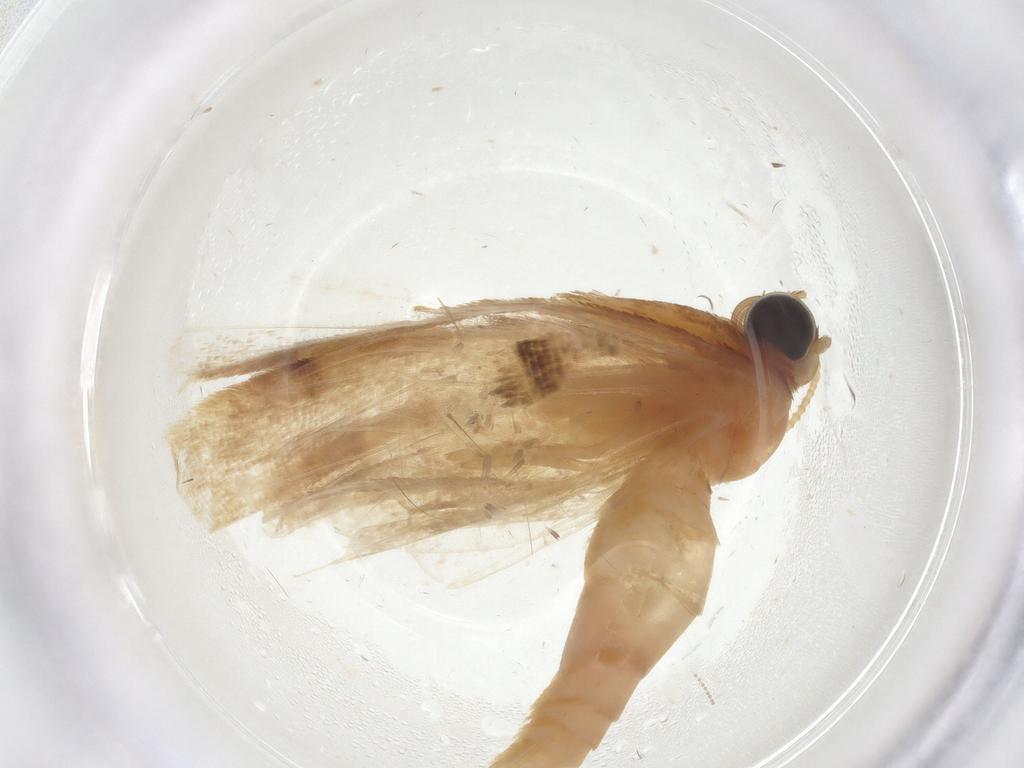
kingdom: Animalia
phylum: Arthropoda
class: Insecta
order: Lepidoptera
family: Geometridae
